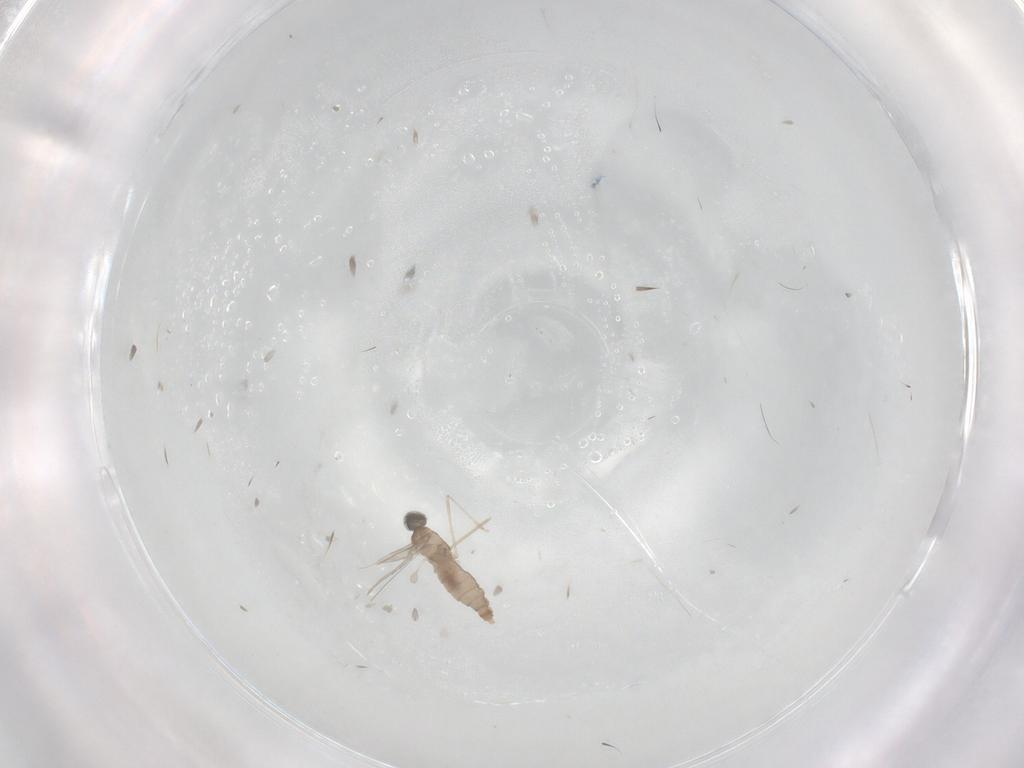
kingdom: Animalia
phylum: Arthropoda
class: Insecta
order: Diptera
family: Cecidomyiidae
